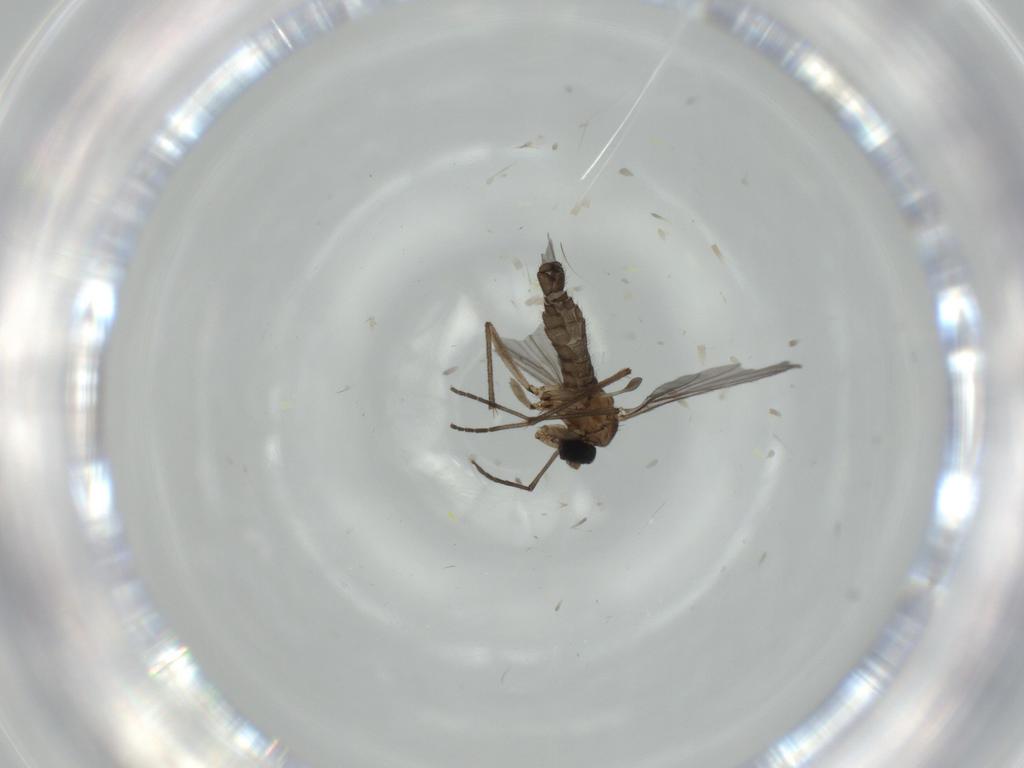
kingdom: Animalia
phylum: Arthropoda
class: Insecta
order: Diptera
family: Sciaridae
